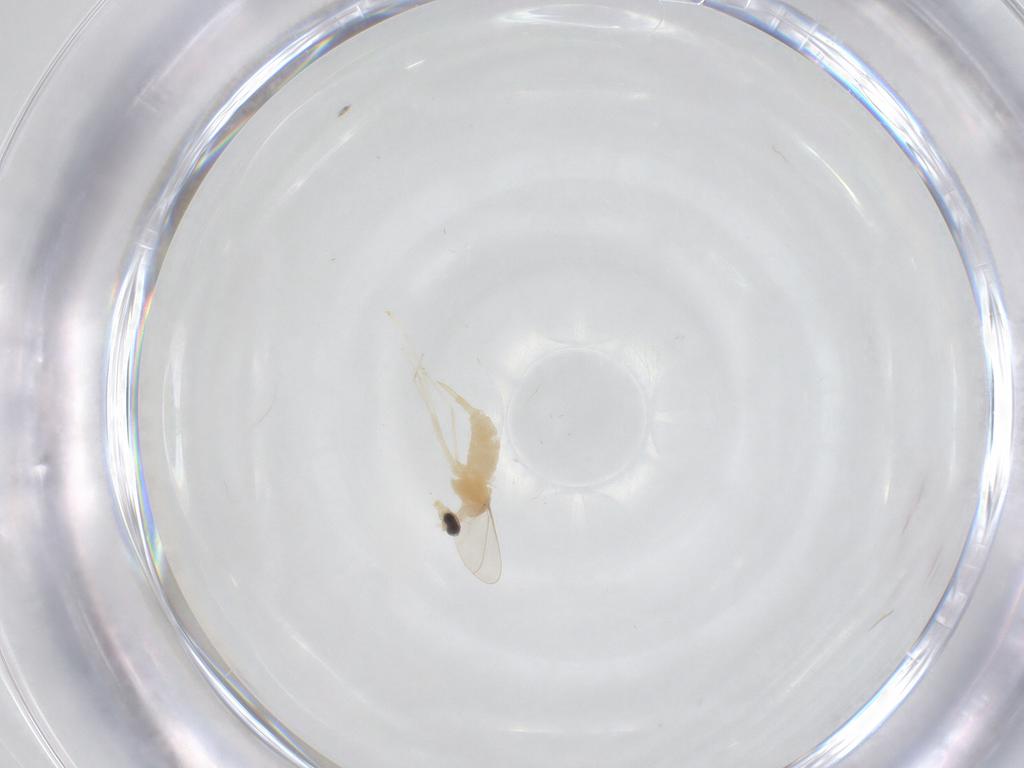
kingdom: Animalia
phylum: Arthropoda
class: Insecta
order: Diptera
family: Cecidomyiidae
